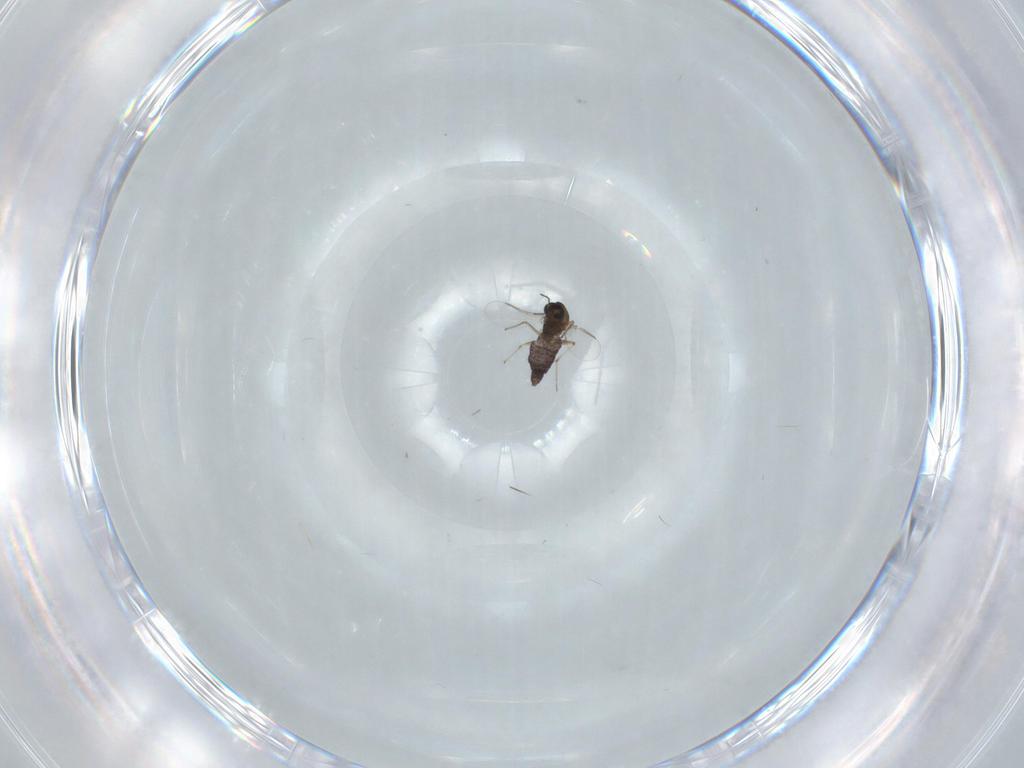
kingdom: Animalia
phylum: Arthropoda
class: Insecta
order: Diptera
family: Chironomidae
